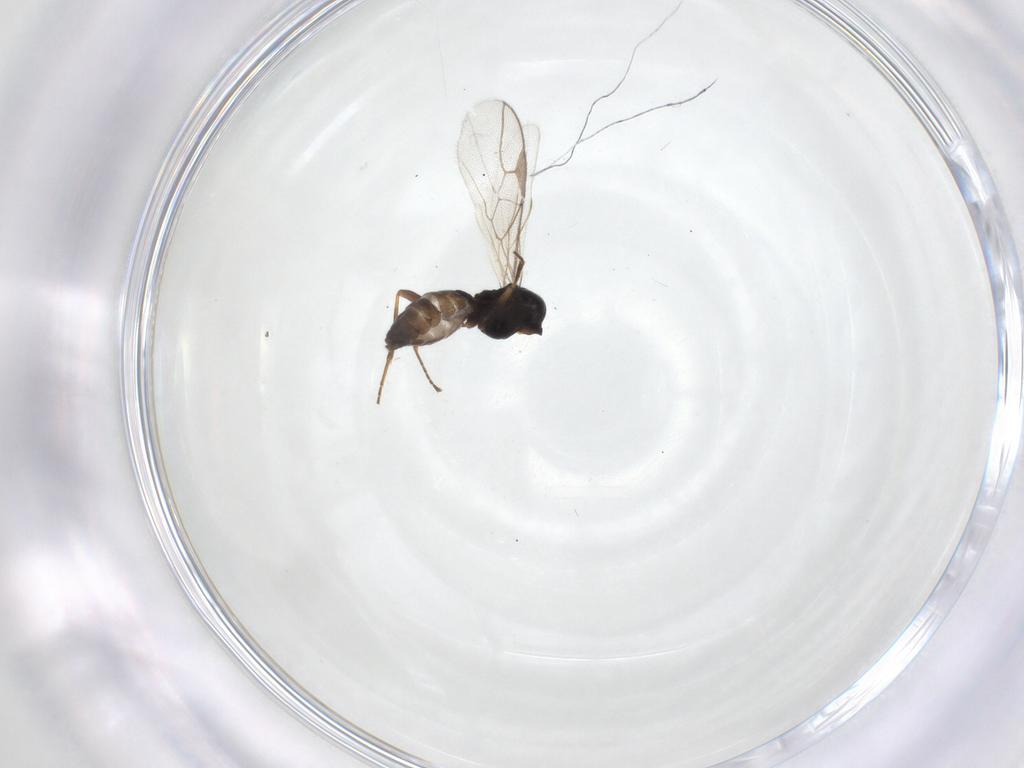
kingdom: Animalia
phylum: Arthropoda
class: Insecta
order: Hymenoptera
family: Braconidae
